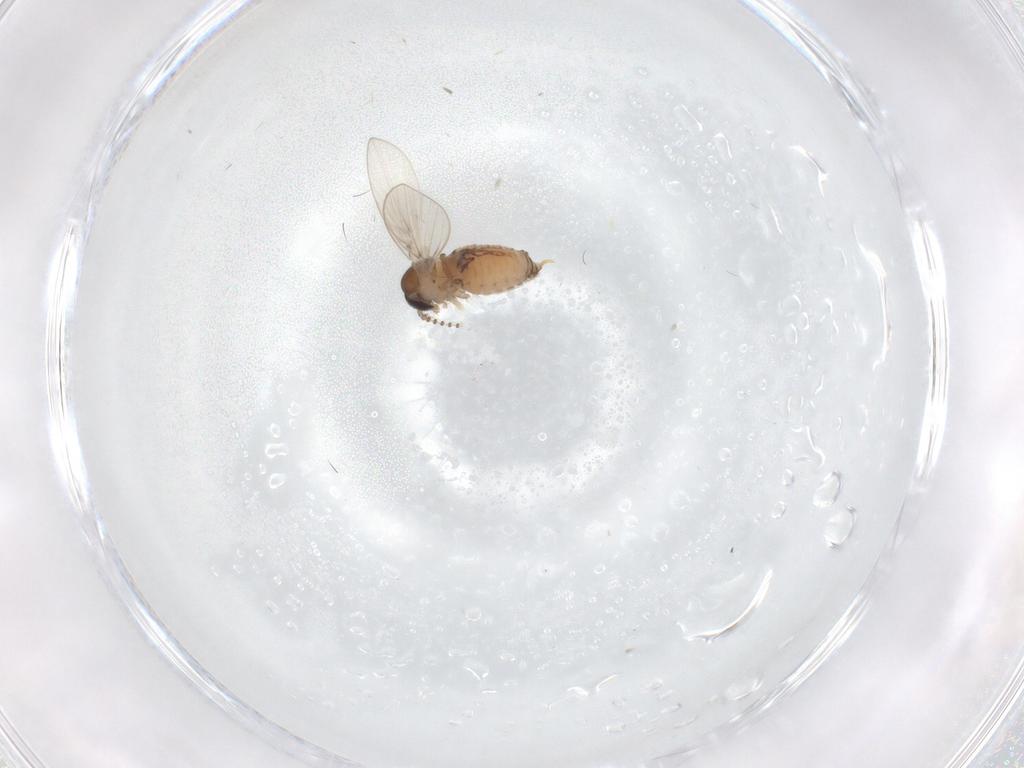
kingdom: Animalia
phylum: Arthropoda
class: Insecta
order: Diptera
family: Psychodidae
